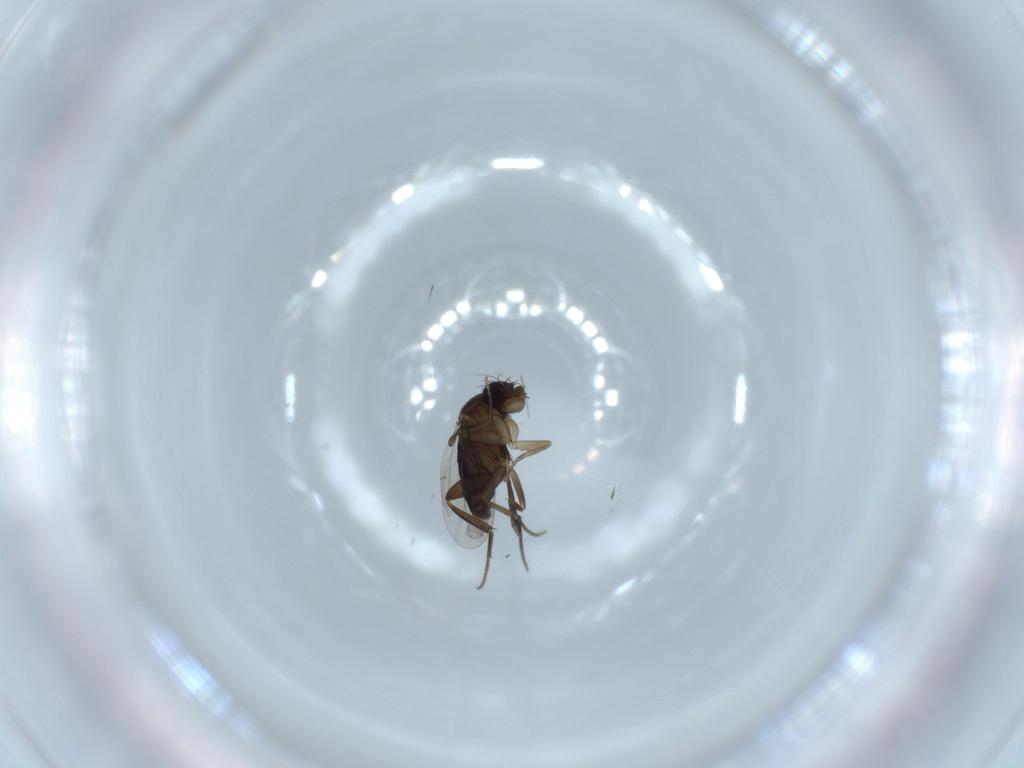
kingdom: Animalia
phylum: Arthropoda
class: Insecta
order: Diptera
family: Phoridae
